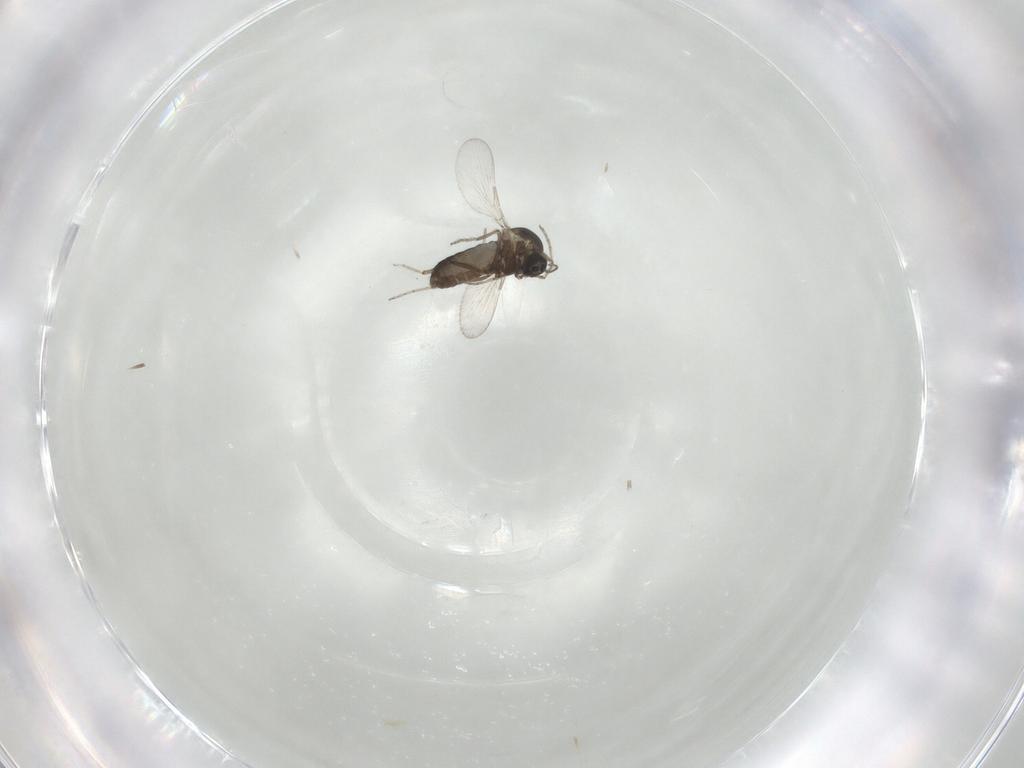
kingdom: Animalia
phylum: Arthropoda
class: Insecta
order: Diptera
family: Ceratopogonidae
